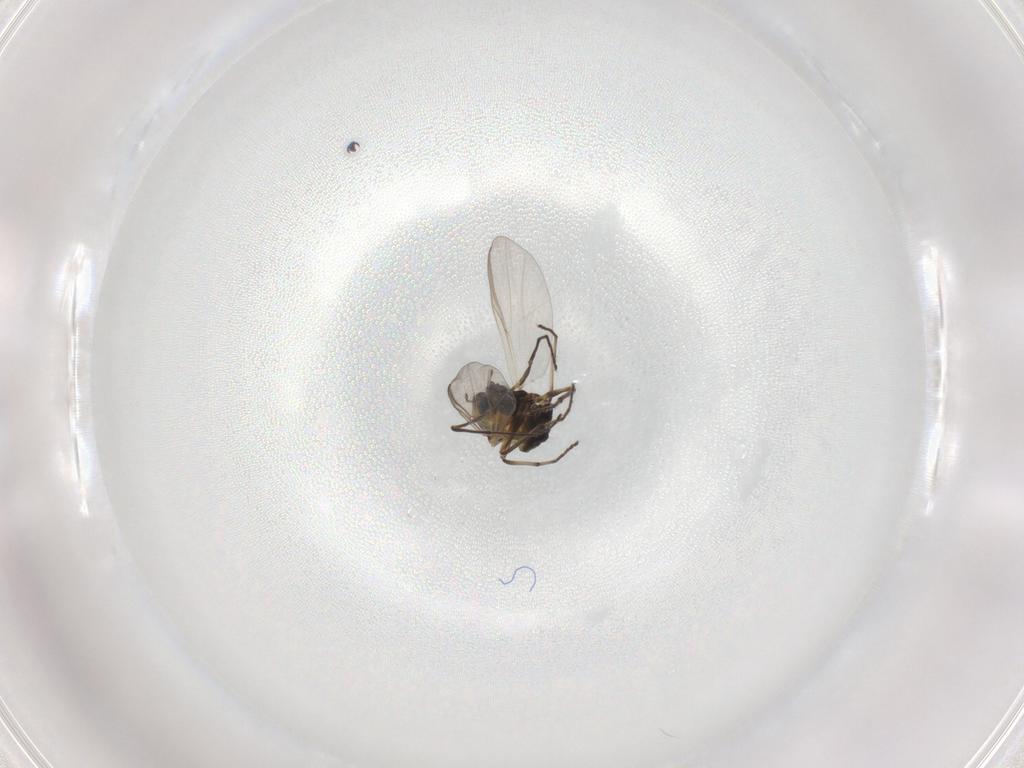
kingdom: Animalia
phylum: Arthropoda
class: Insecta
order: Diptera
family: Chironomidae
